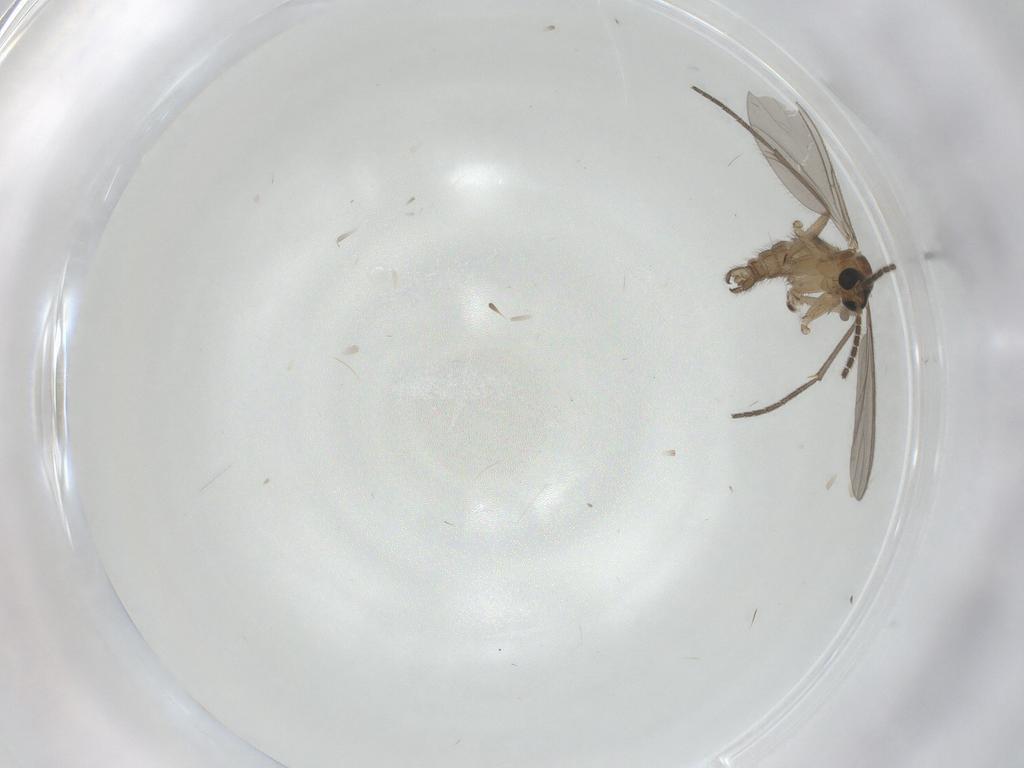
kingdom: Animalia
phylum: Arthropoda
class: Insecta
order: Diptera
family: Sciaridae
